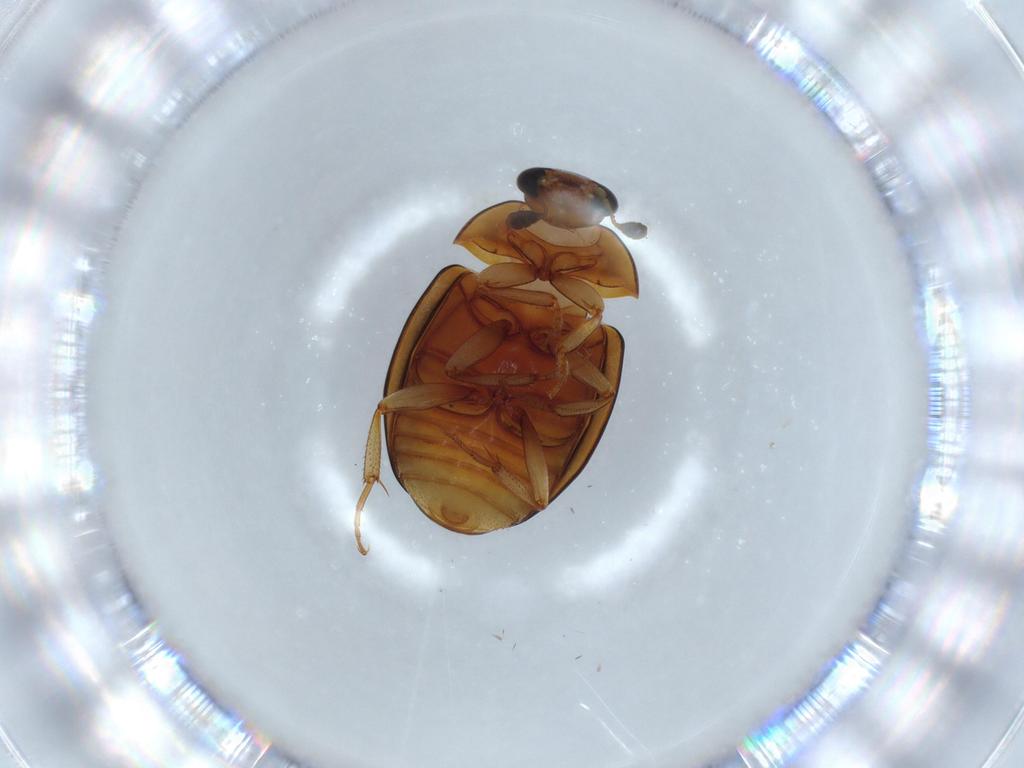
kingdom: Animalia
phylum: Arthropoda
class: Insecta
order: Coleoptera
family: Nitidulidae
